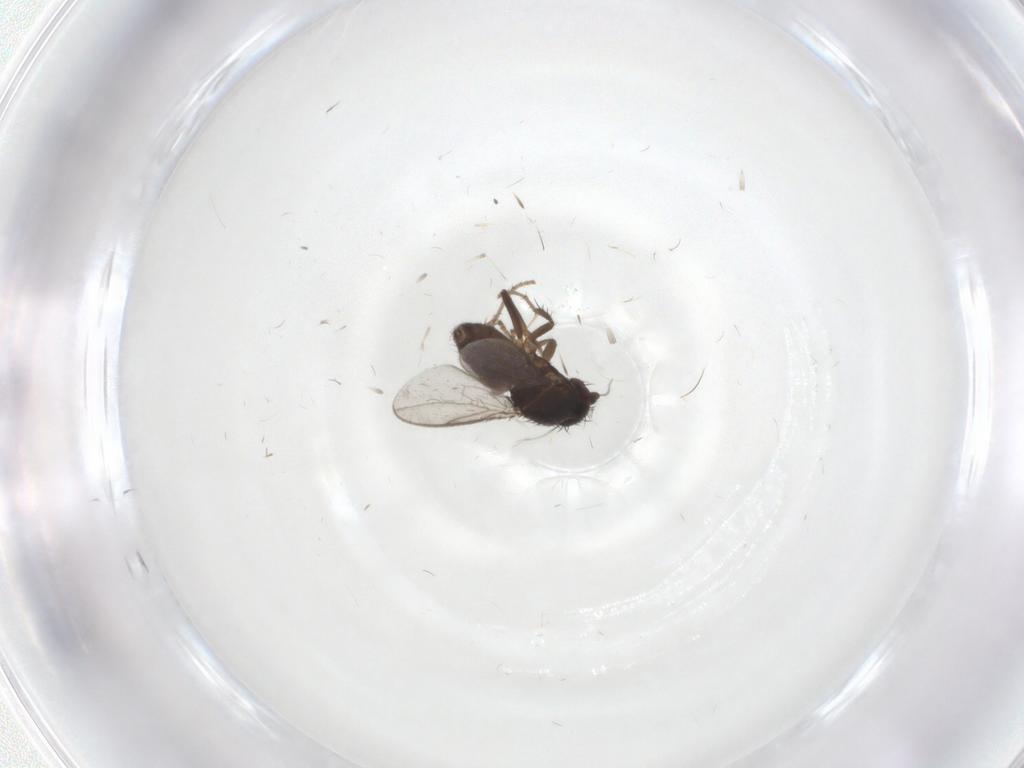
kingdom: Animalia
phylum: Arthropoda
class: Insecta
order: Diptera
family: Sphaeroceridae
